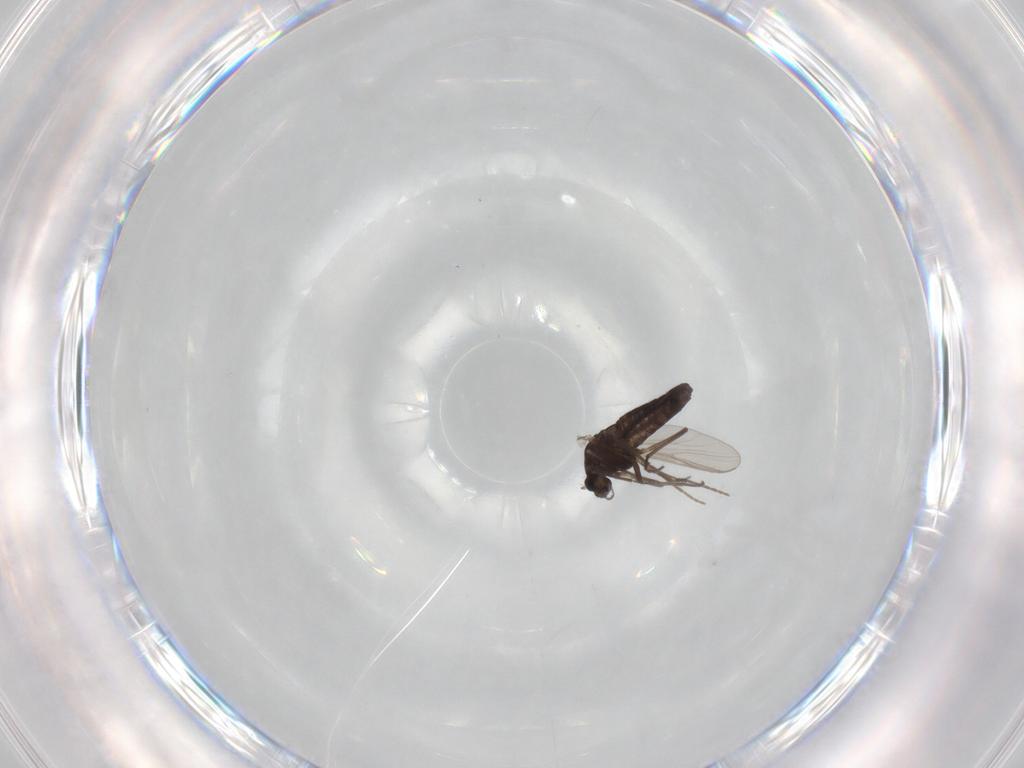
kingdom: Animalia
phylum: Arthropoda
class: Insecta
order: Diptera
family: Chironomidae
